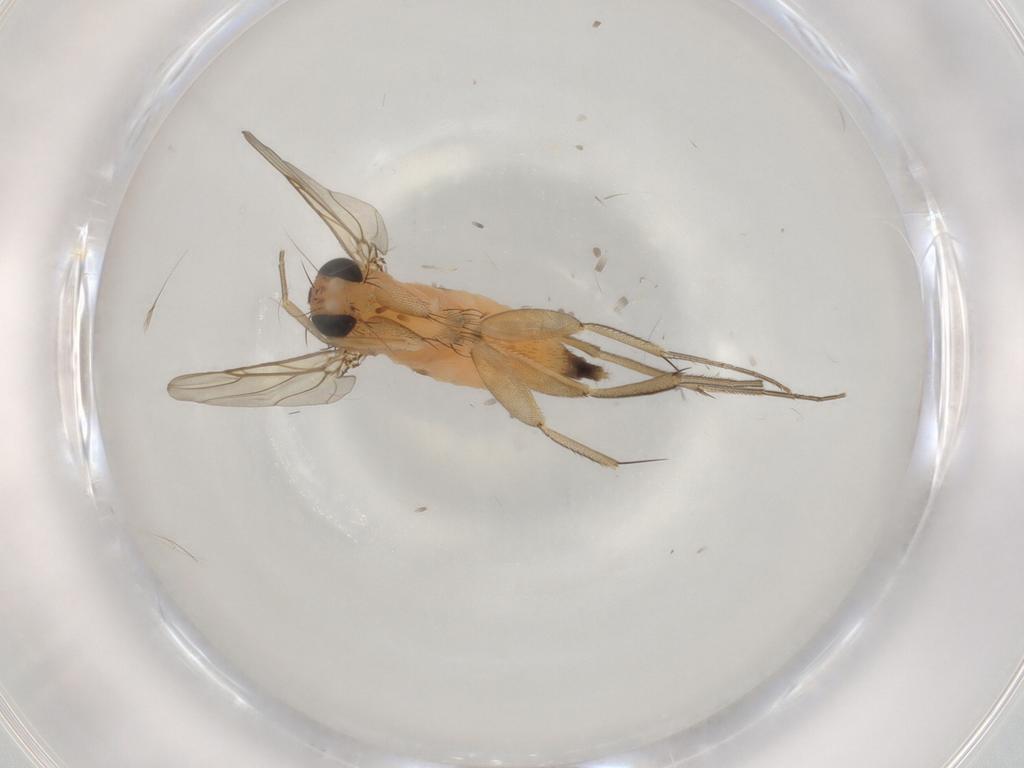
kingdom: Animalia
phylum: Arthropoda
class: Insecta
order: Diptera
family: Phoridae
